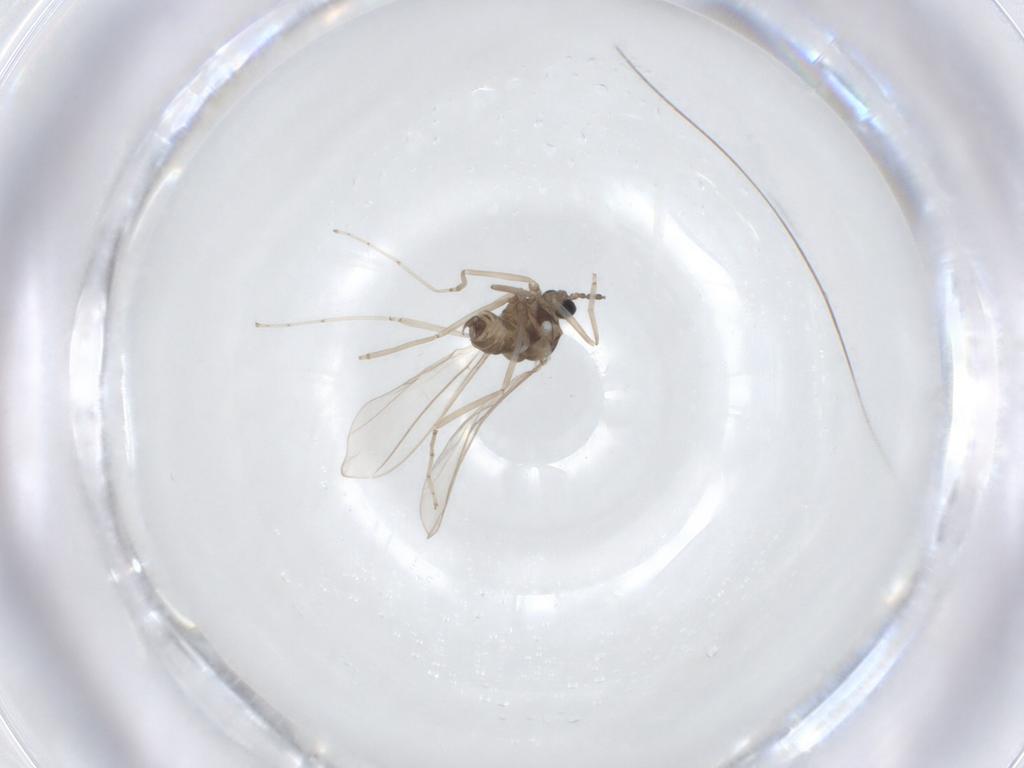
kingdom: Animalia
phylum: Arthropoda
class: Insecta
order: Diptera
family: Cecidomyiidae
